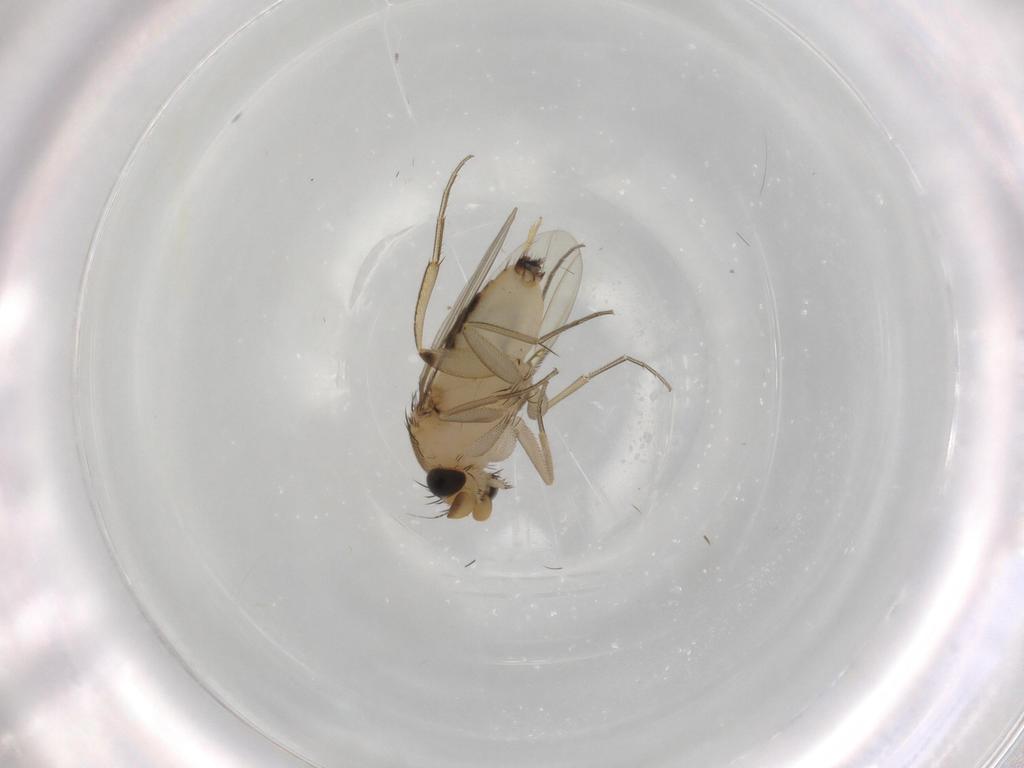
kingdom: Animalia
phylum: Arthropoda
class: Insecta
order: Diptera
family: Phoridae
